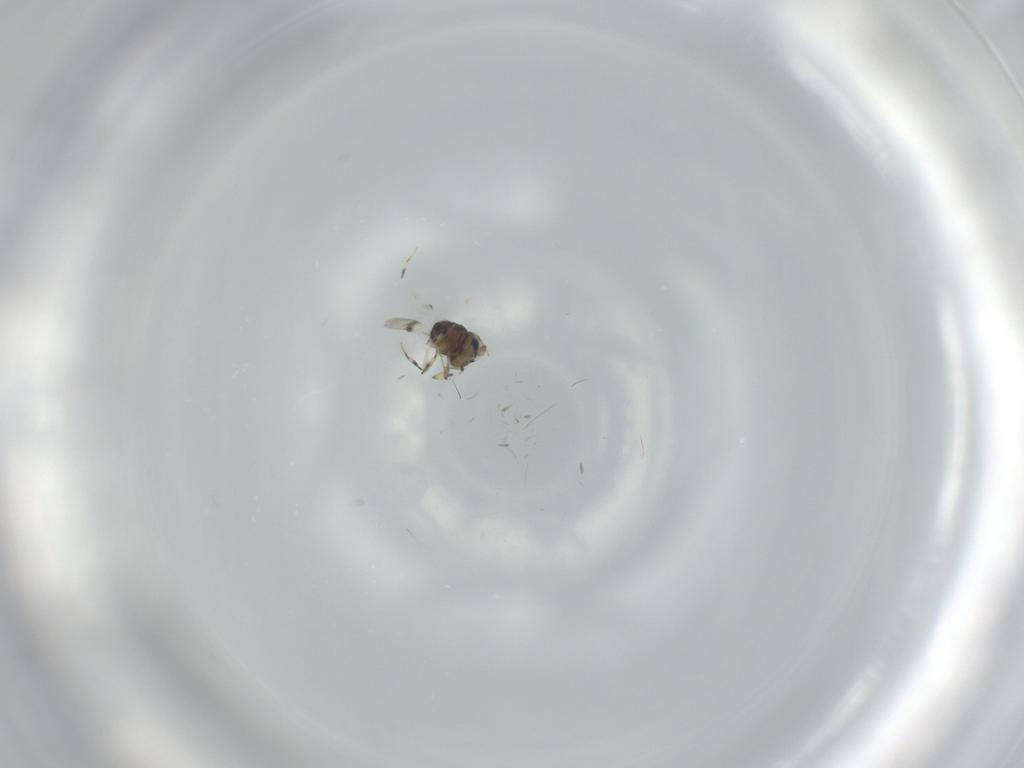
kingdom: Animalia
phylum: Arthropoda
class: Insecta
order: Hymenoptera
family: Scelionidae
